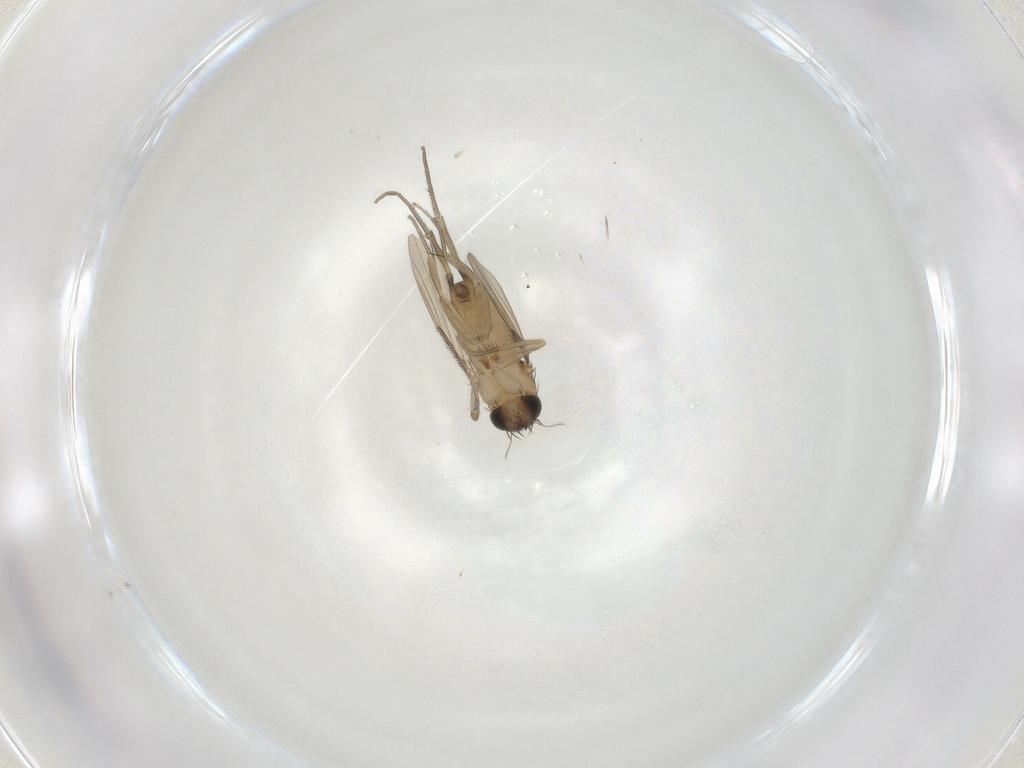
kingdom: Animalia
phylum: Arthropoda
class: Insecta
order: Diptera
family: Phoridae
